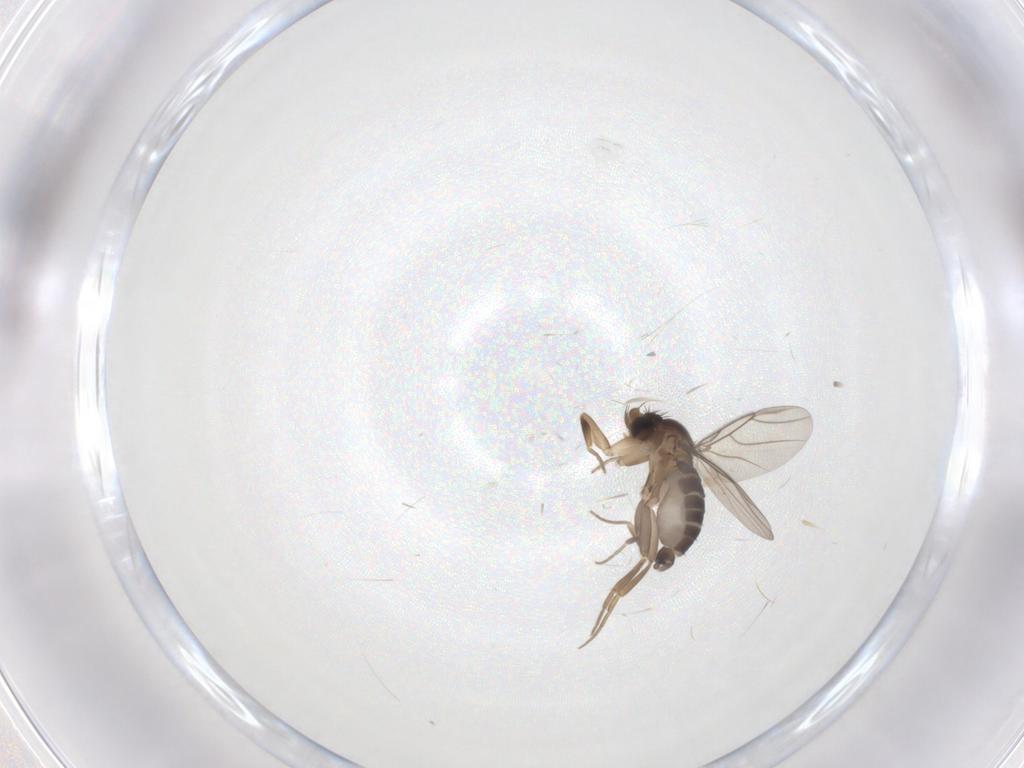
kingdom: Animalia
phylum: Arthropoda
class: Insecta
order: Diptera
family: Phoridae
